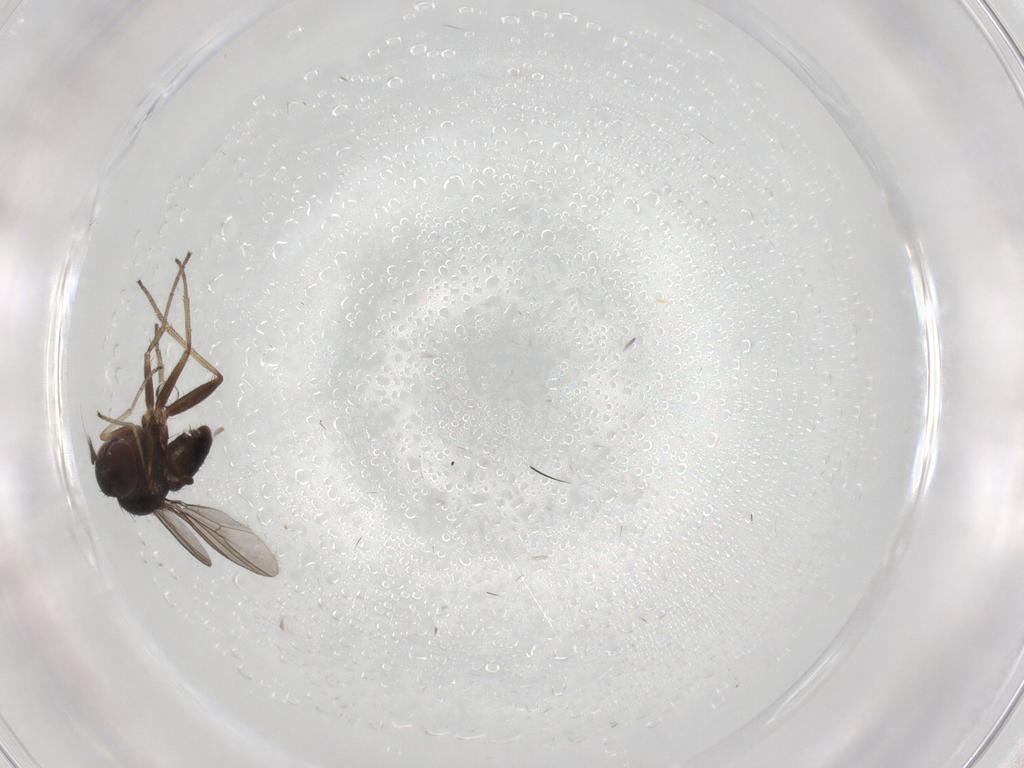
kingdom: Animalia
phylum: Arthropoda
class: Insecta
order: Diptera
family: Dolichopodidae
